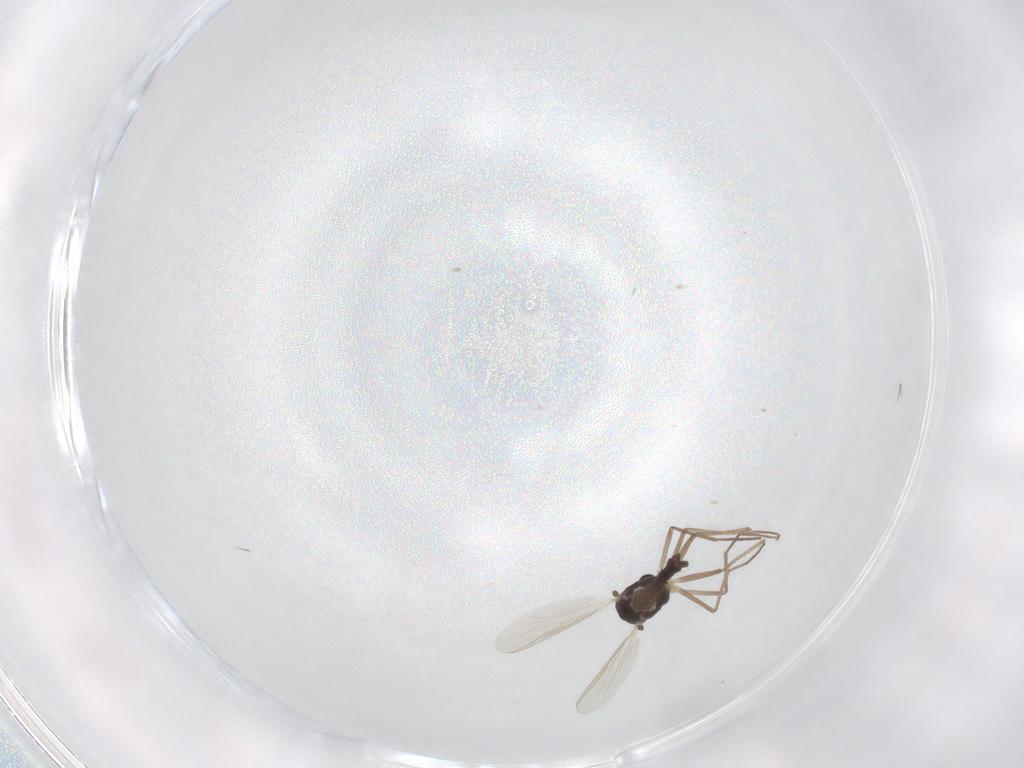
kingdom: Animalia
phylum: Arthropoda
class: Insecta
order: Diptera
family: Chironomidae
